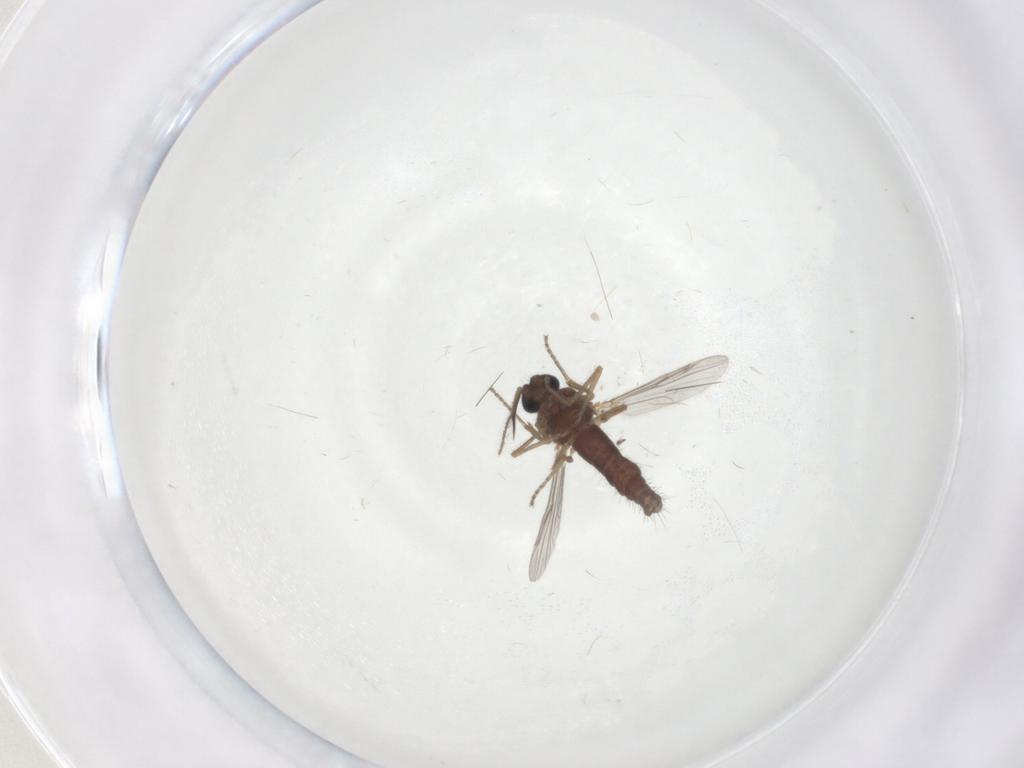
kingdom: Animalia
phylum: Arthropoda
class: Insecta
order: Diptera
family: Ceratopogonidae
